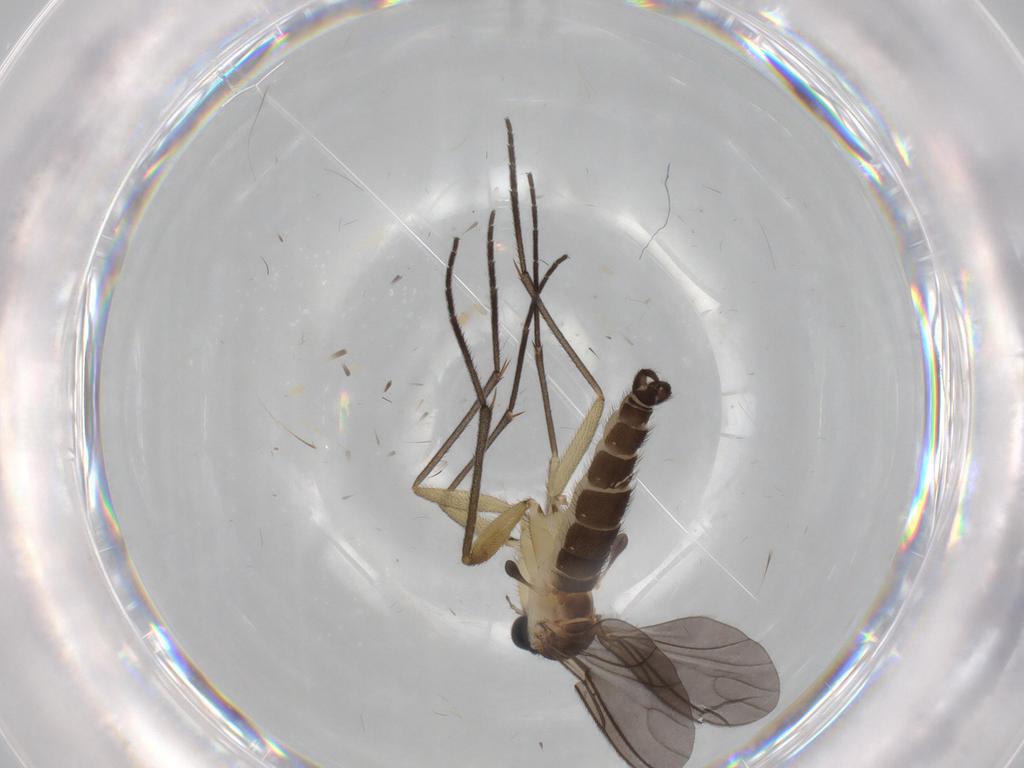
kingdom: Animalia
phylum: Arthropoda
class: Insecta
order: Diptera
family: Sciaridae
